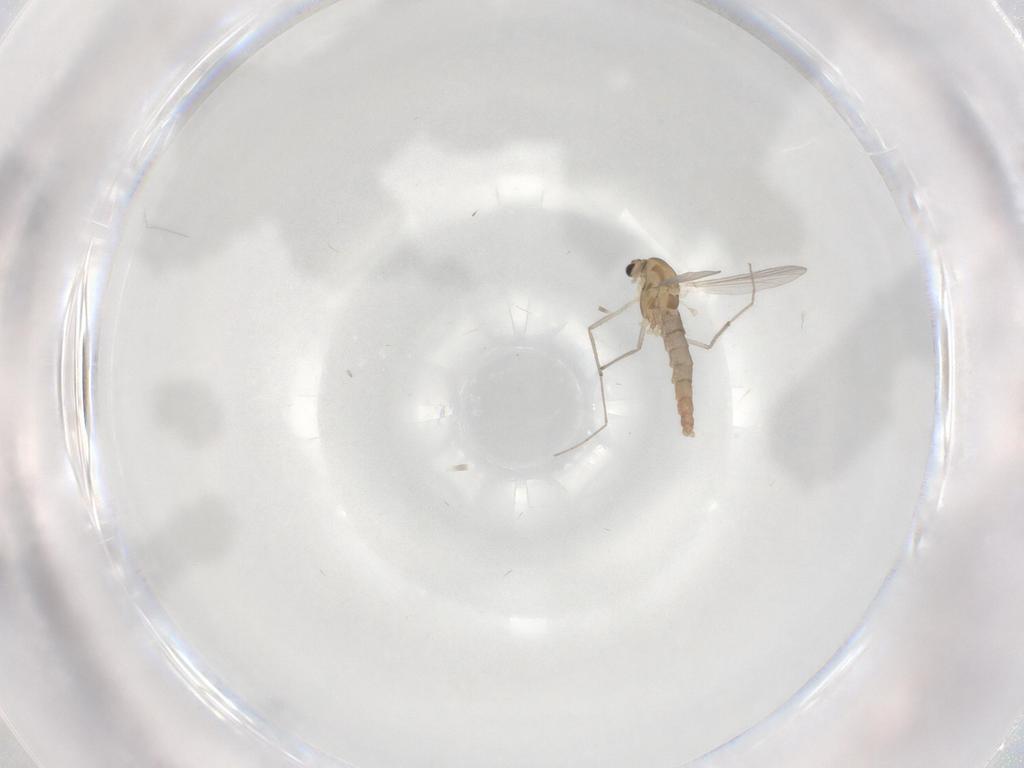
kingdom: Animalia
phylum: Arthropoda
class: Insecta
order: Diptera
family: Chironomidae
